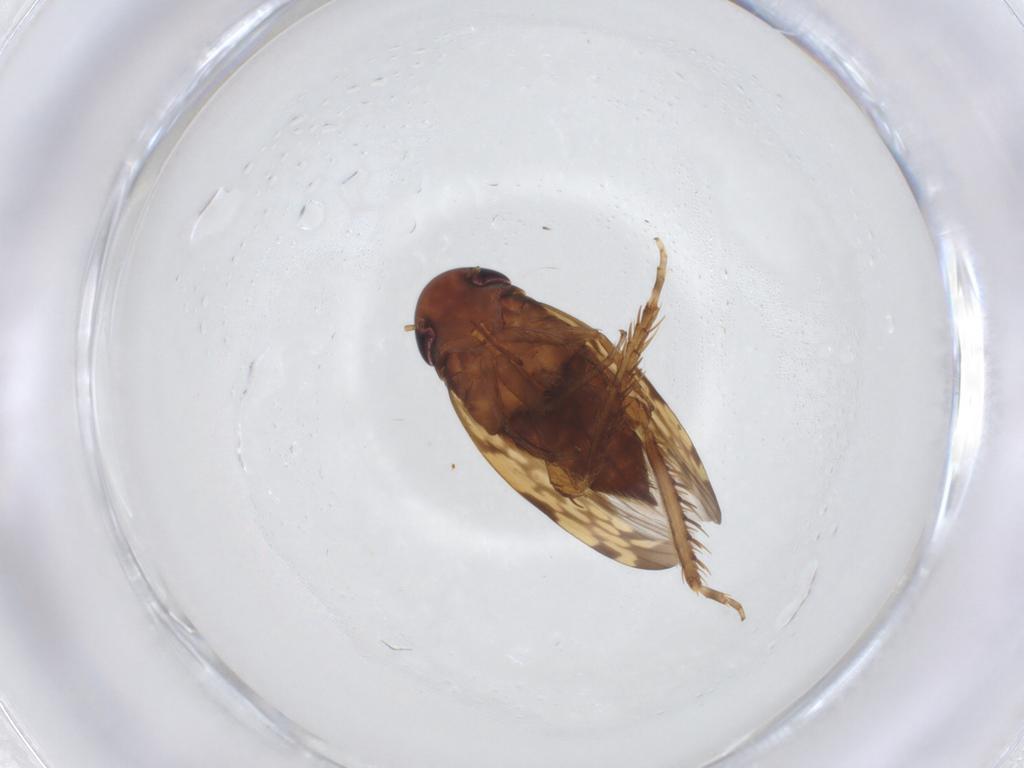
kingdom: Animalia
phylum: Arthropoda
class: Insecta
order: Hemiptera
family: Cicadellidae
